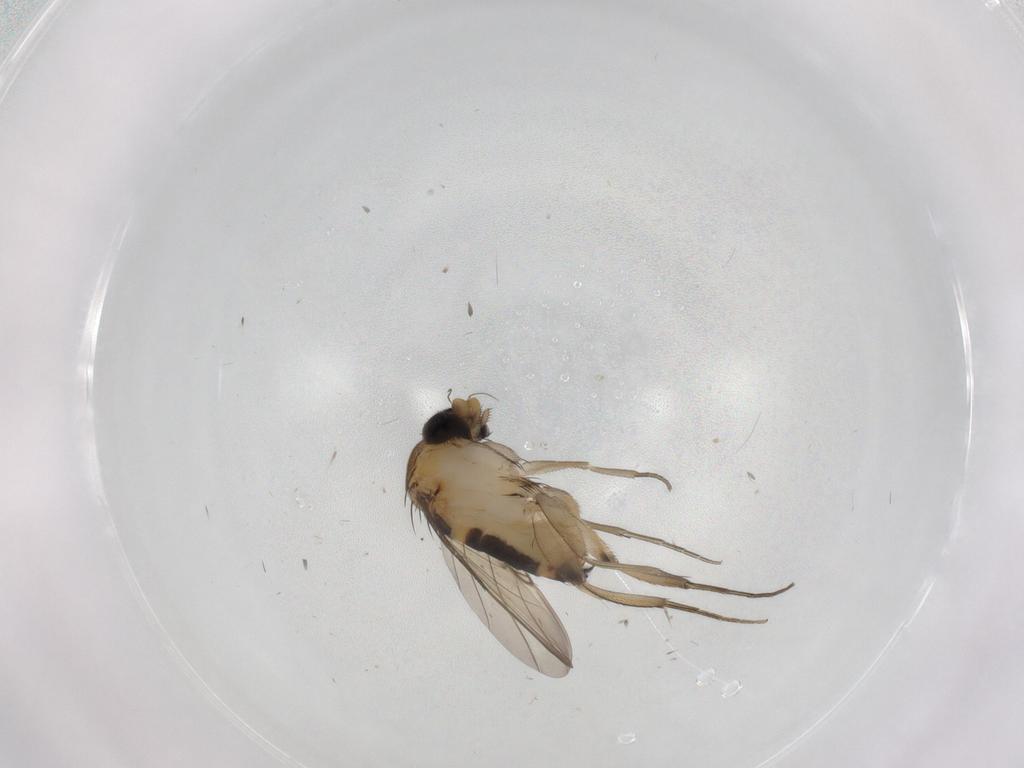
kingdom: Animalia
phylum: Arthropoda
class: Insecta
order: Diptera
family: Phoridae
